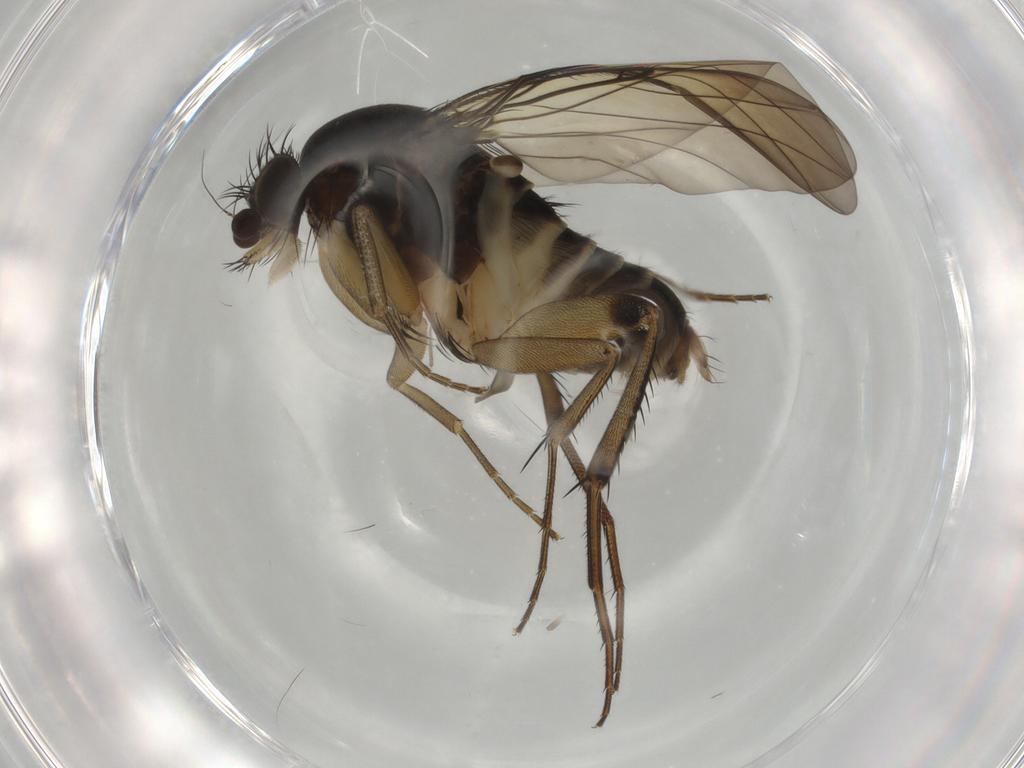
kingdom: Animalia
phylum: Arthropoda
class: Insecta
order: Diptera
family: Phoridae
